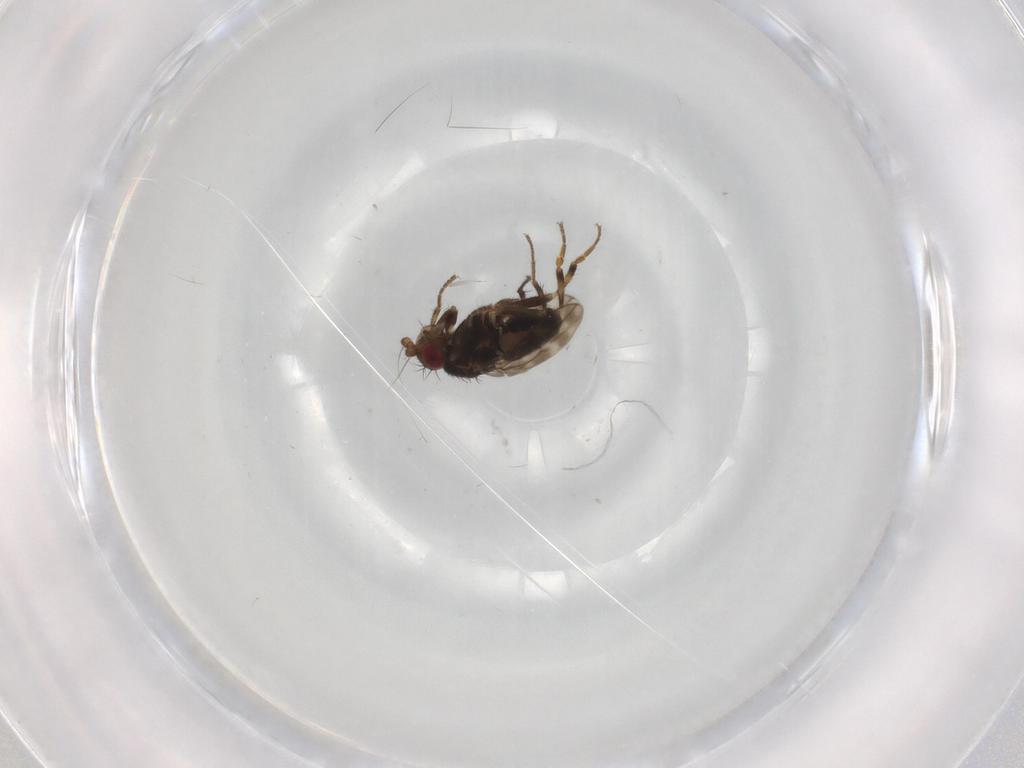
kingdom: Animalia
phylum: Arthropoda
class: Insecta
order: Diptera
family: Sphaeroceridae
